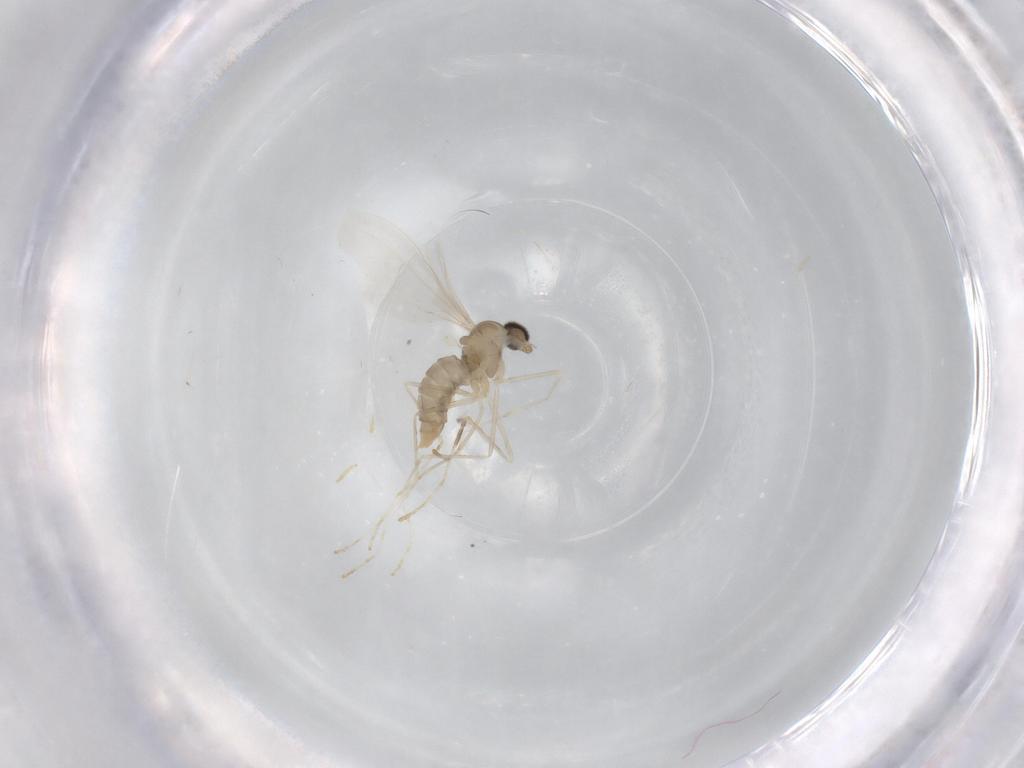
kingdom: Animalia
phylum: Arthropoda
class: Insecta
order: Diptera
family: Cecidomyiidae
